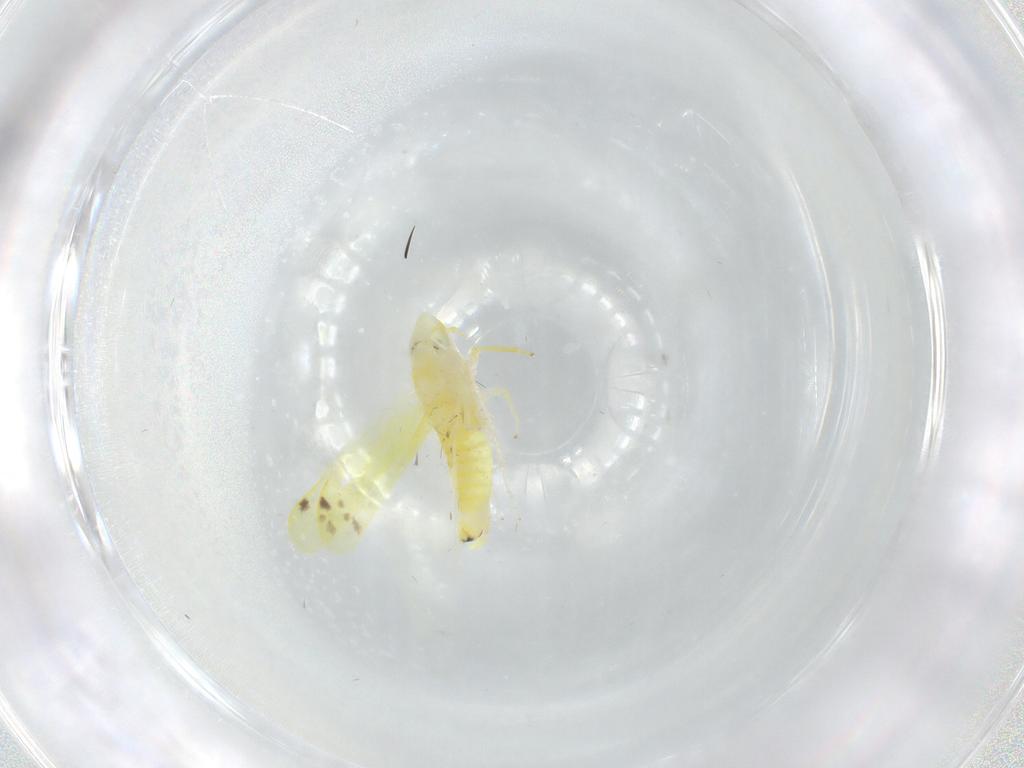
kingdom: Animalia
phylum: Arthropoda
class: Insecta
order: Hemiptera
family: Cicadellidae
